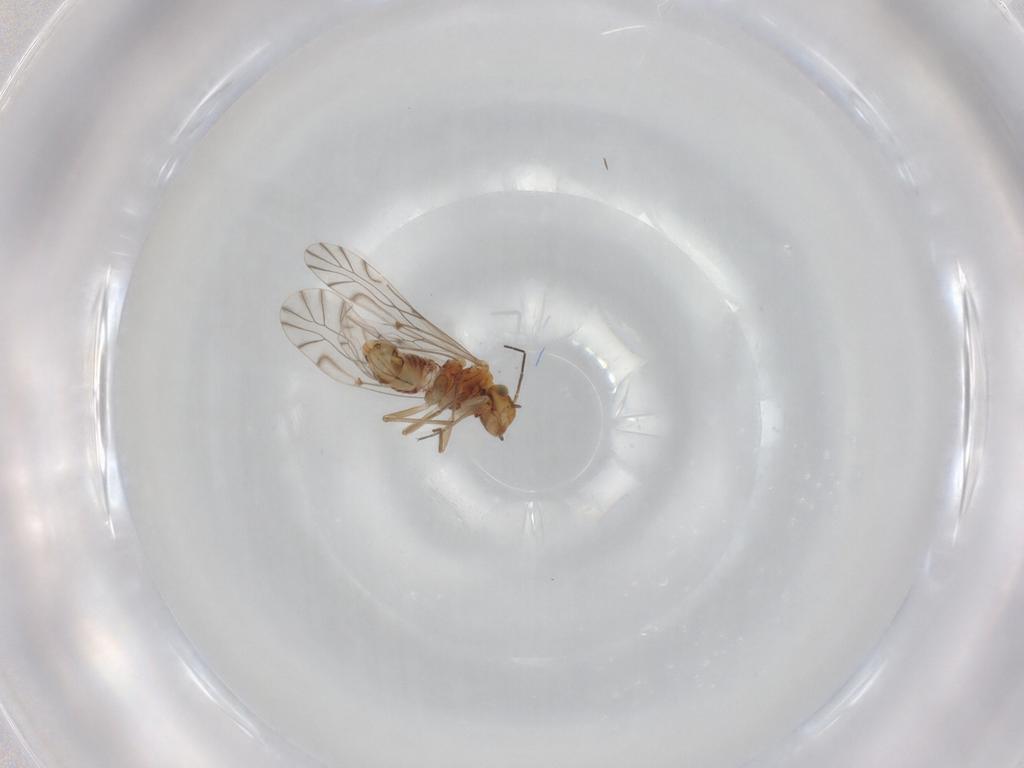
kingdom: Animalia
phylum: Arthropoda
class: Insecta
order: Psocodea
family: Lachesillidae
